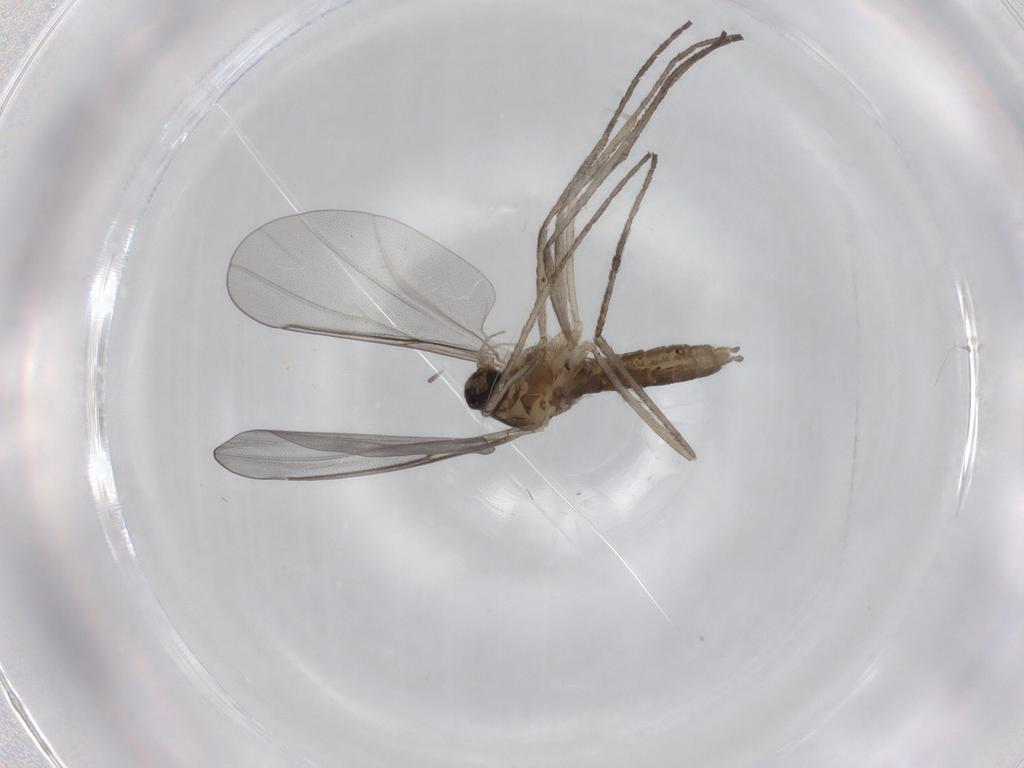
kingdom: Animalia
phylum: Arthropoda
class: Insecta
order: Diptera
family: Cecidomyiidae
